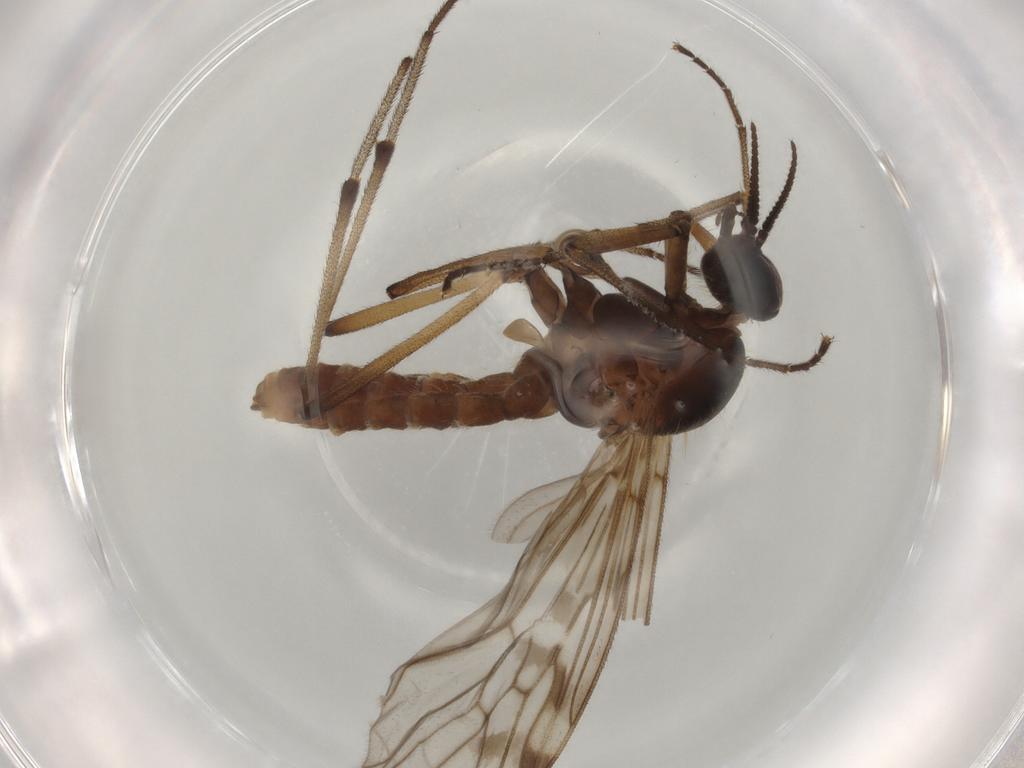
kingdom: Animalia
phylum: Arthropoda
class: Insecta
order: Diptera
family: Anisopodidae
